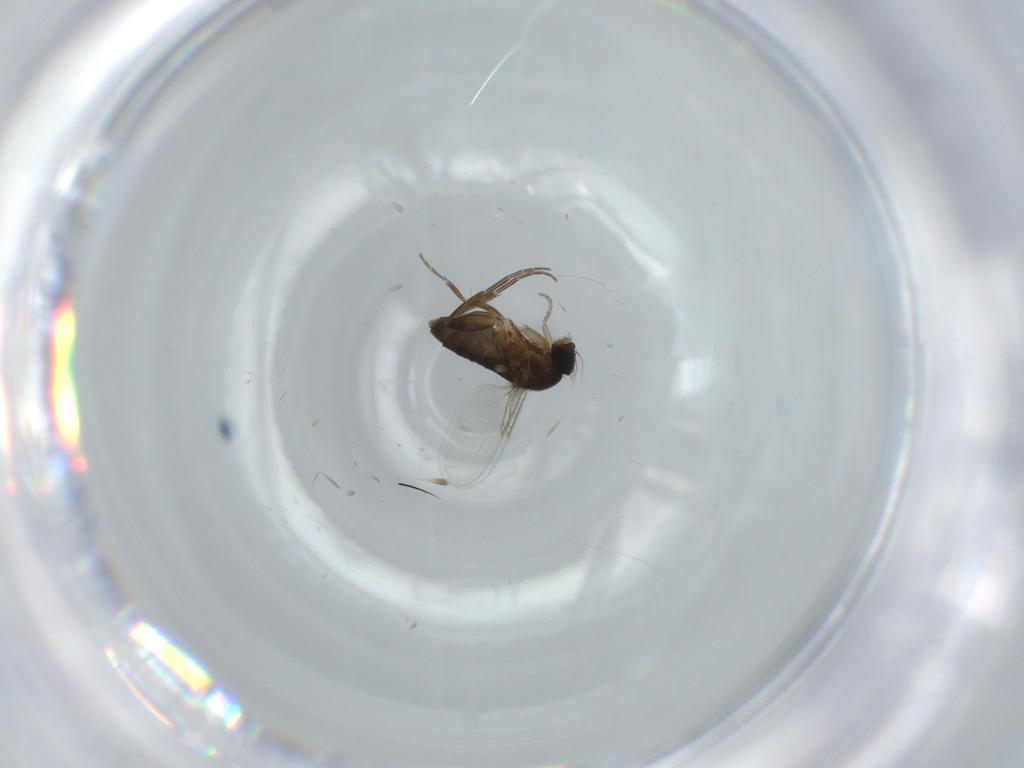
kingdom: Animalia
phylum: Arthropoda
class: Insecta
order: Diptera
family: Phoridae
